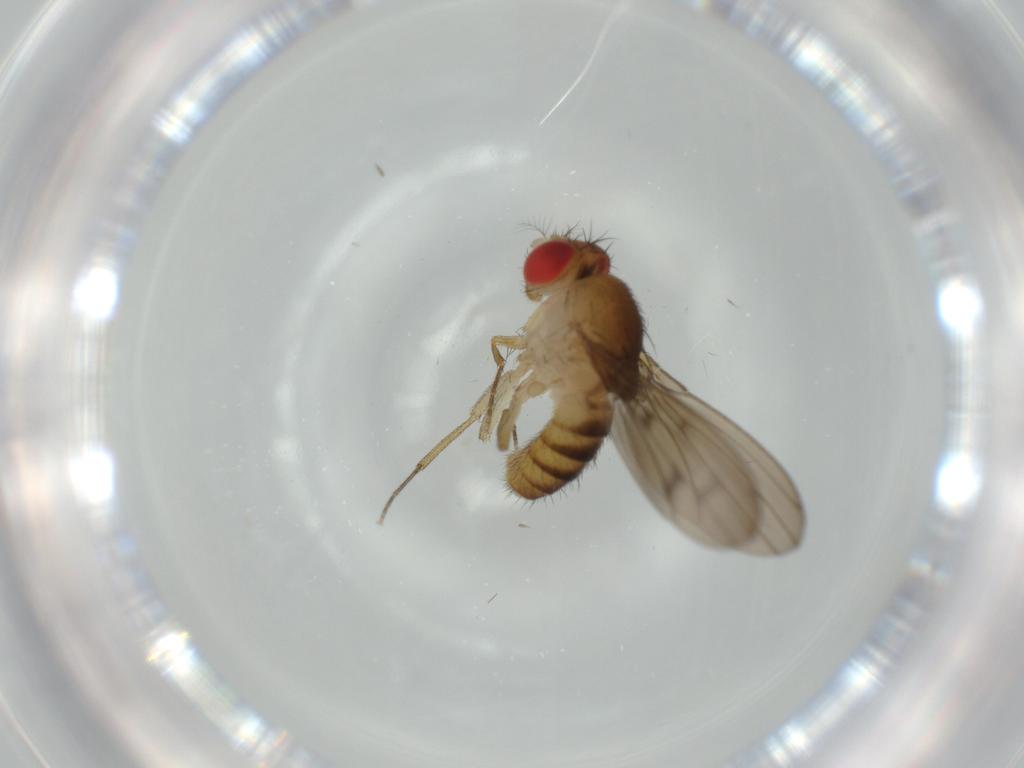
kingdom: Animalia
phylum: Arthropoda
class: Insecta
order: Diptera
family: Drosophilidae
